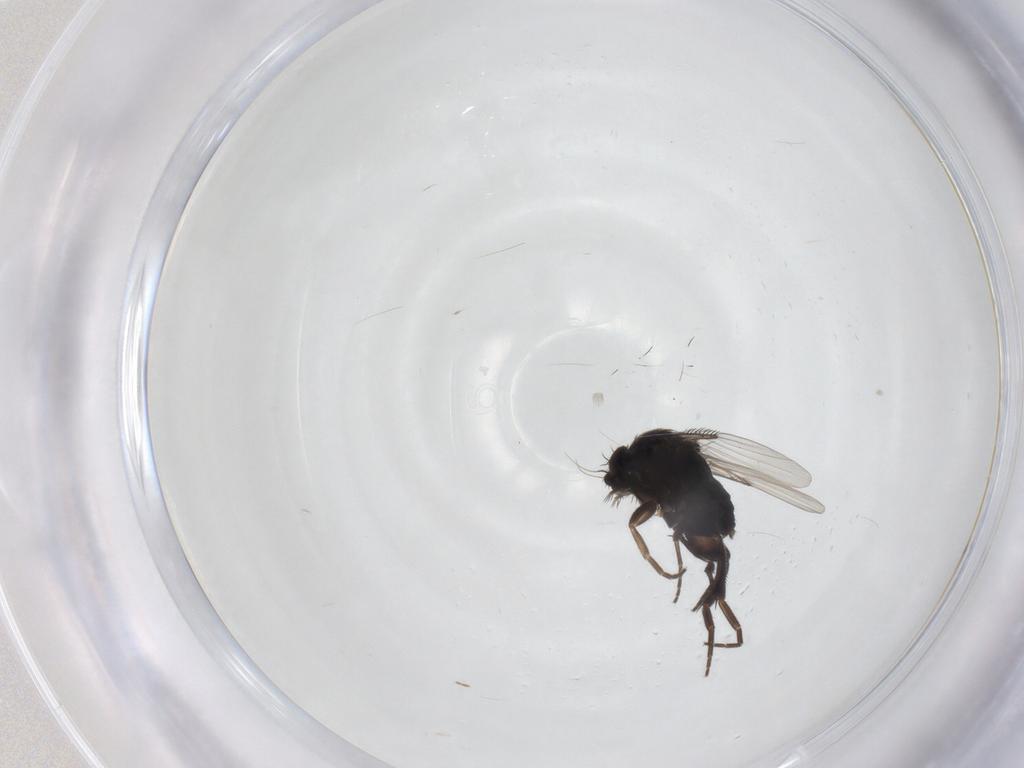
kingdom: Animalia
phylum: Arthropoda
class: Insecta
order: Diptera
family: Phoridae
